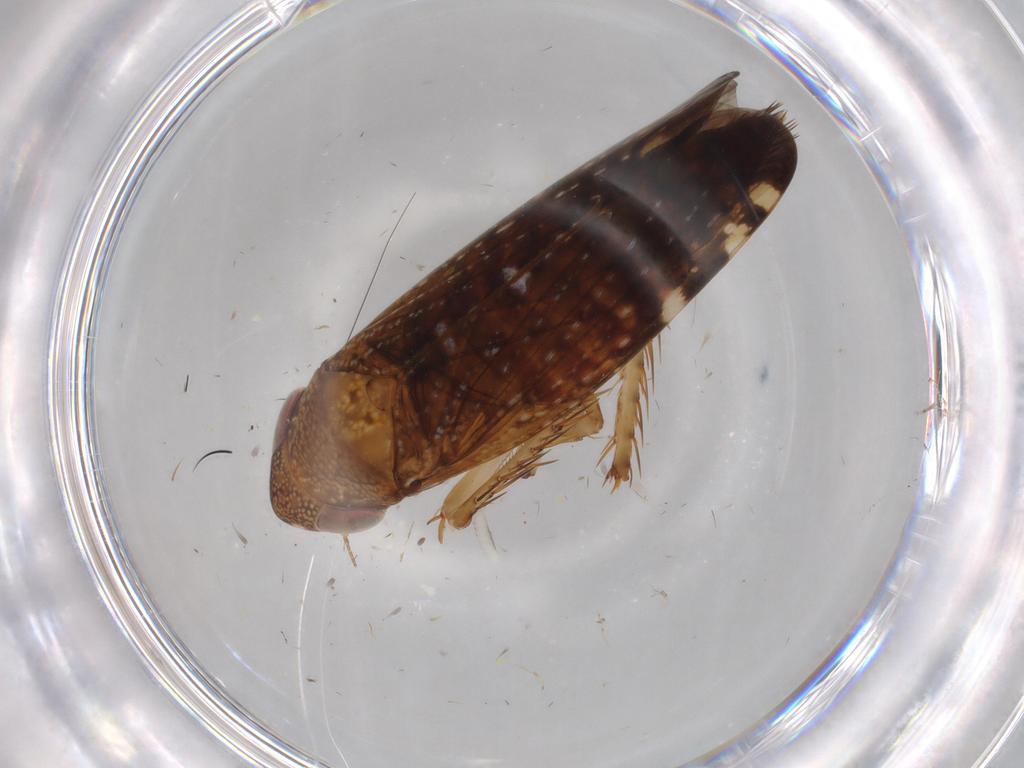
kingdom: Animalia
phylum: Arthropoda
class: Insecta
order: Hemiptera
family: Cicadellidae
